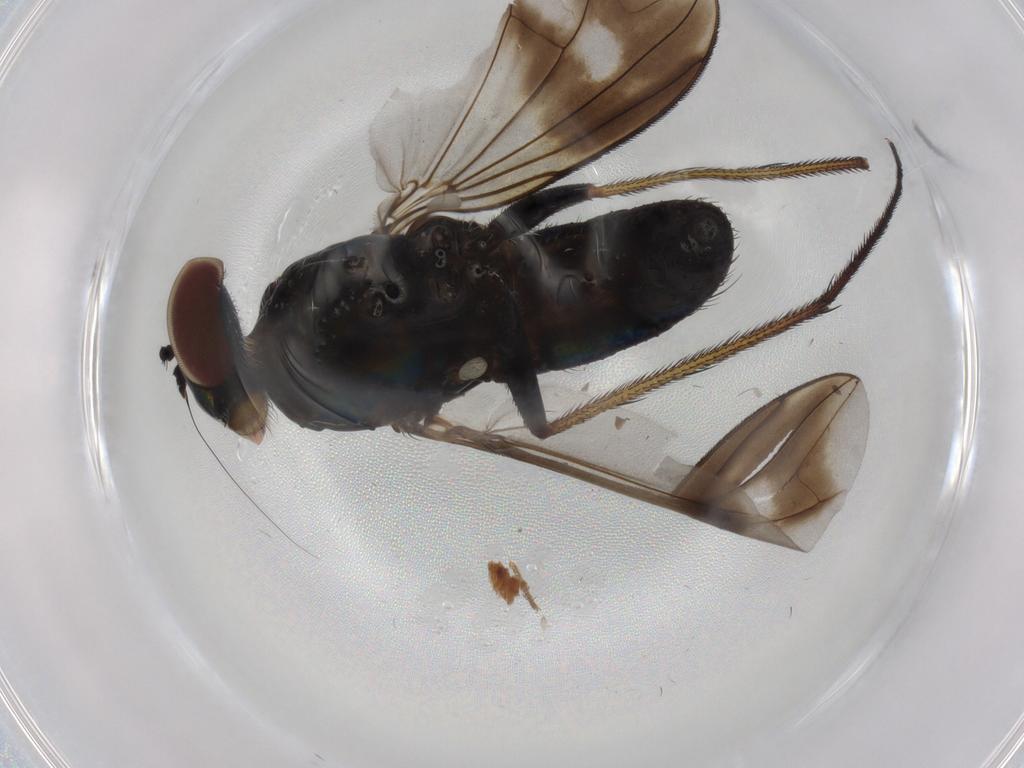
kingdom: Animalia
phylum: Arthropoda
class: Insecta
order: Diptera
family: Dolichopodidae
